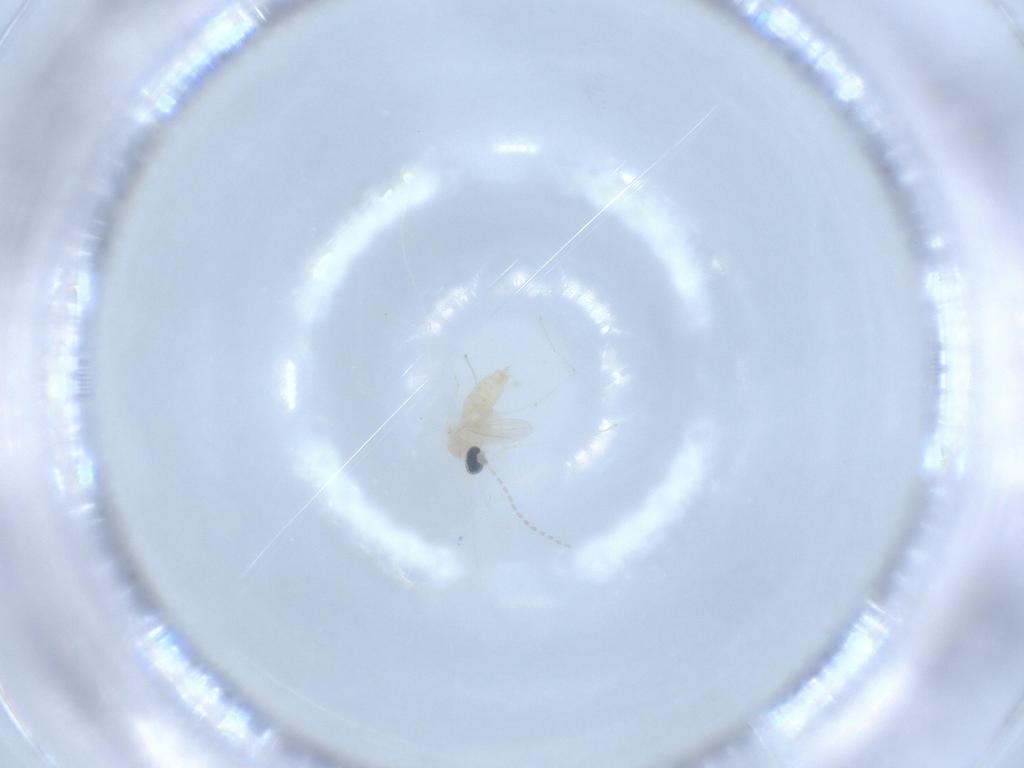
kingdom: Animalia
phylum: Arthropoda
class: Insecta
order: Diptera
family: Cecidomyiidae
